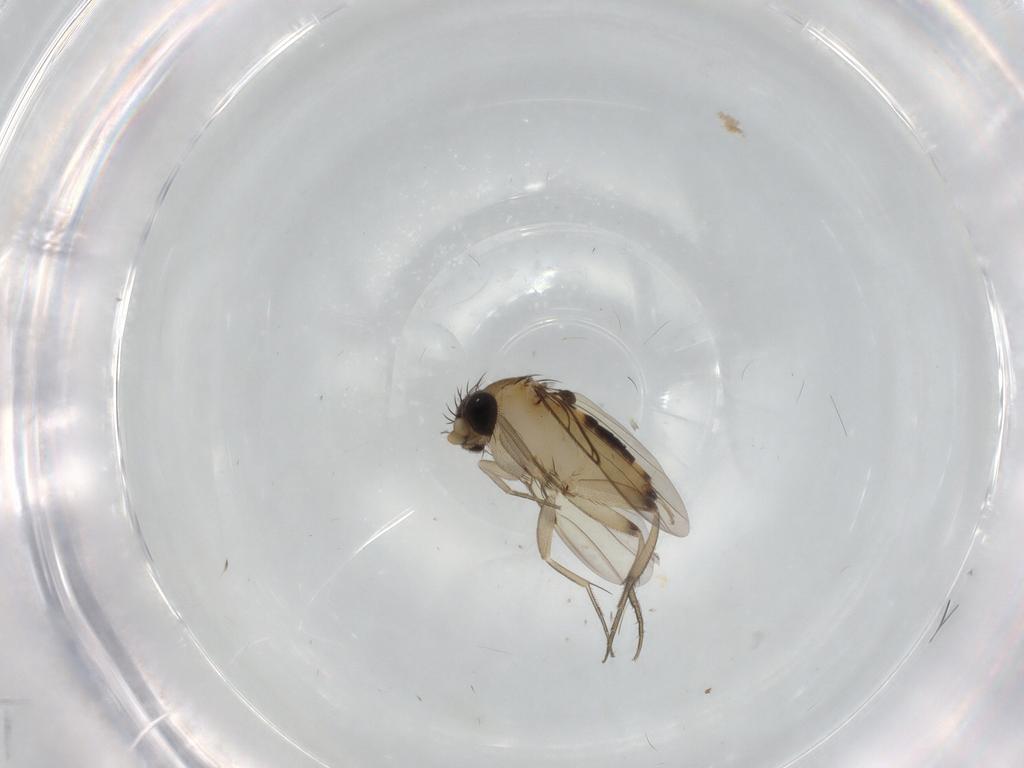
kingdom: Animalia
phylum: Arthropoda
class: Insecta
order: Diptera
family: Phoridae
